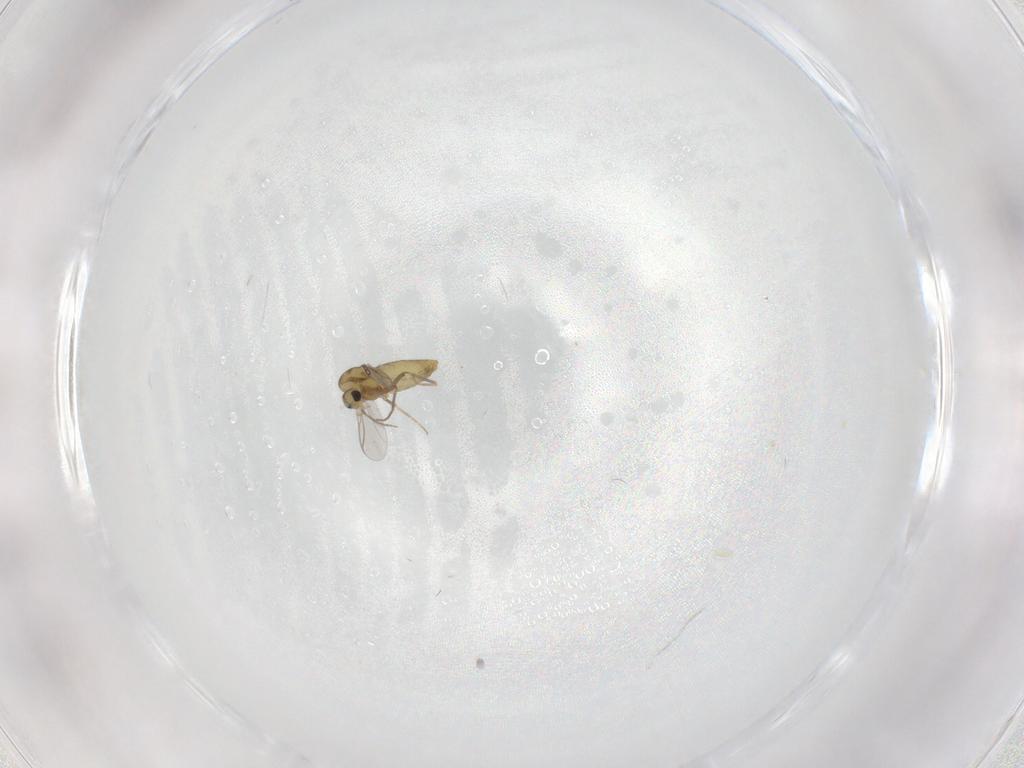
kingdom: Animalia
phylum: Arthropoda
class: Insecta
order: Diptera
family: Chironomidae
